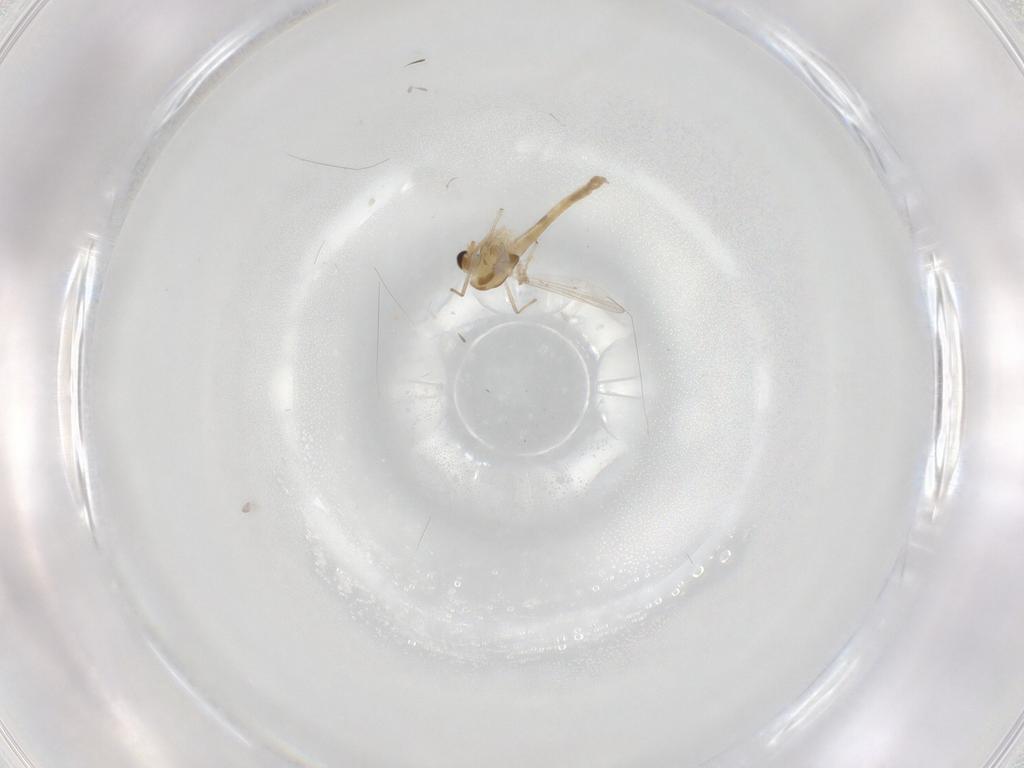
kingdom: Animalia
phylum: Arthropoda
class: Insecta
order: Diptera
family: Chironomidae
